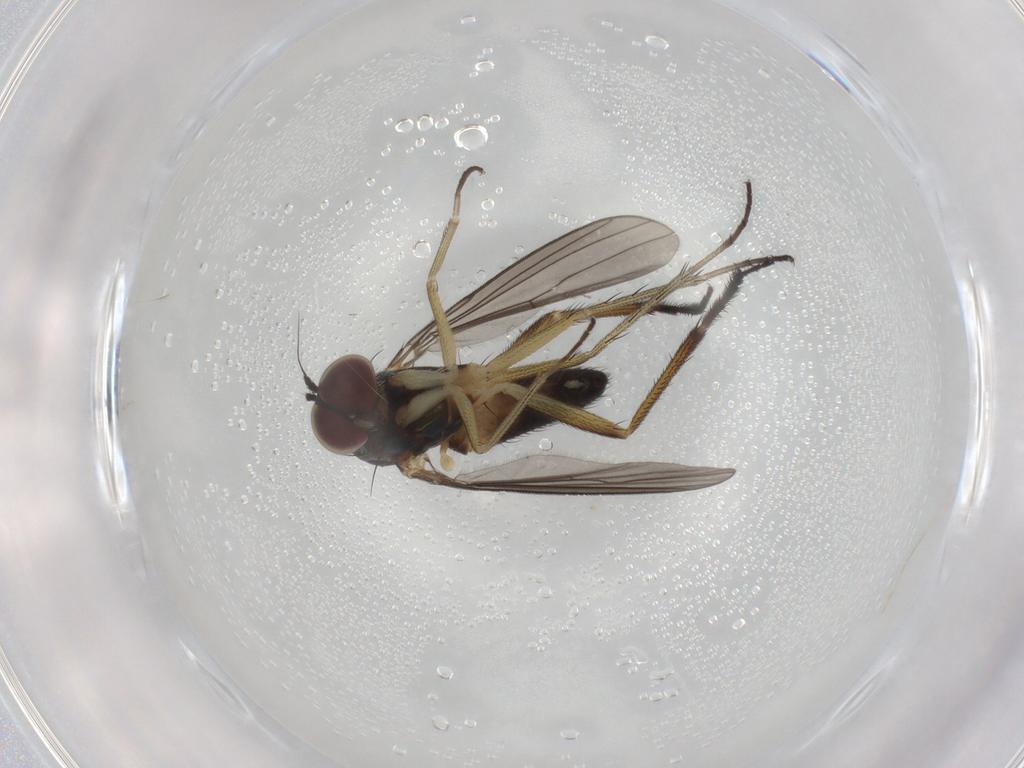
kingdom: Animalia
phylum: Arthropoda
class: Insecta
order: Diptera
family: Dolichopodidae
